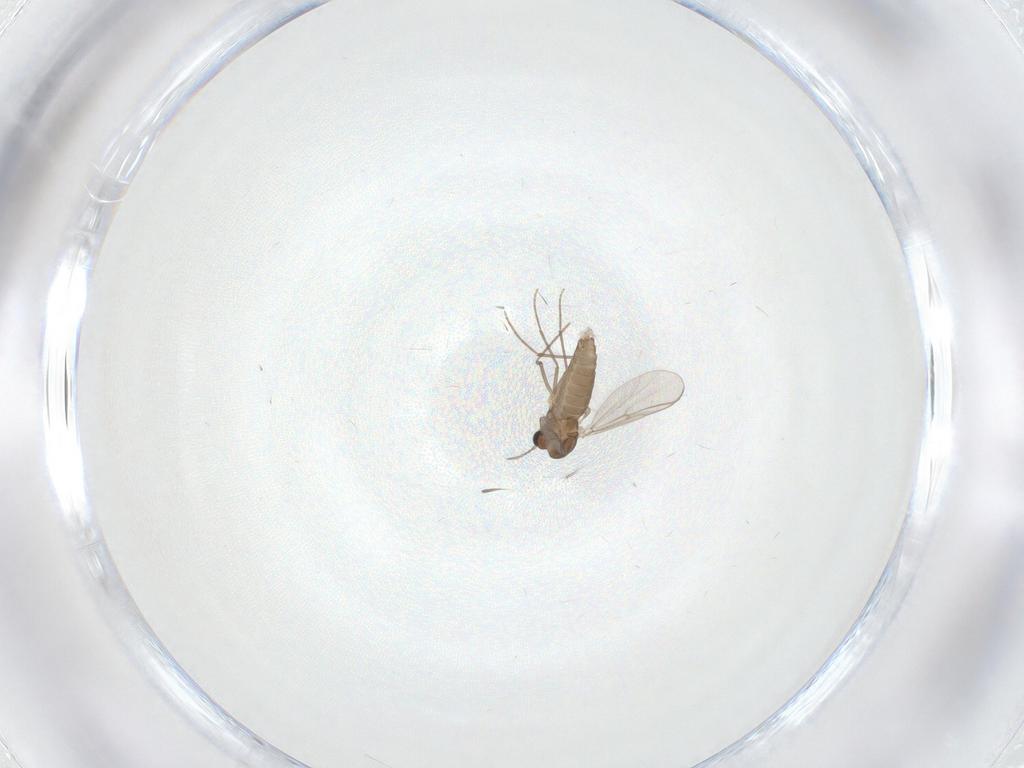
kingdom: Animalia
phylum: Arthropoda
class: Insecta
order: Diptera
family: Chironomidae
